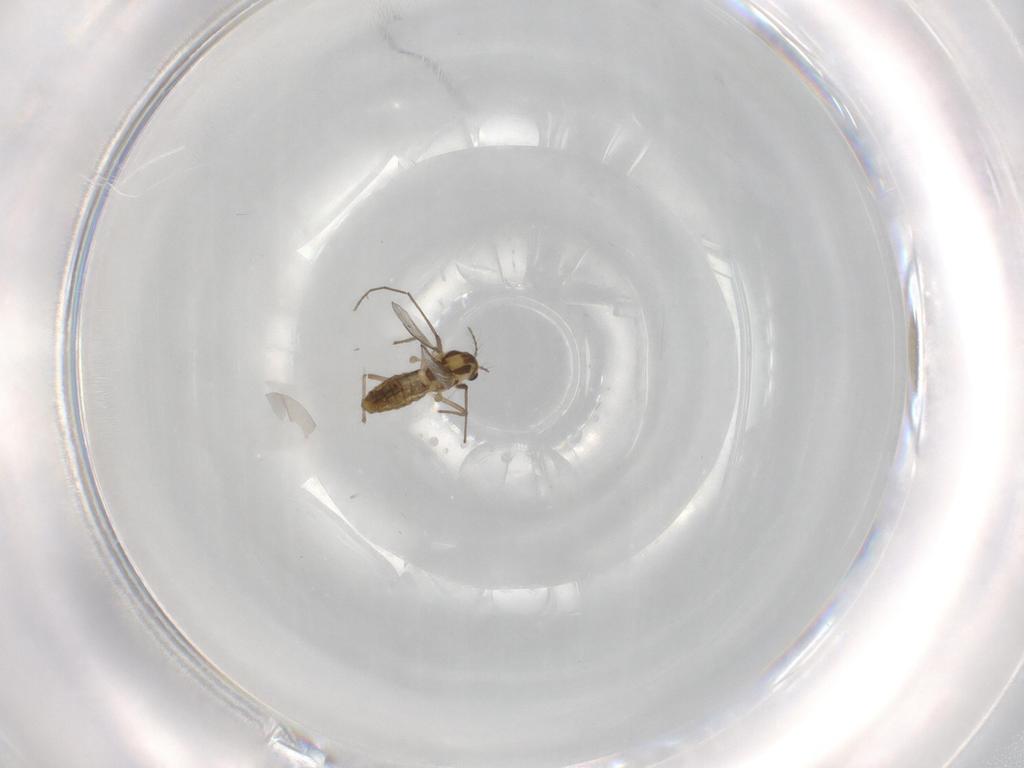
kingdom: Animalia
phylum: Arthropoda
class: Insecta
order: Diptera
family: Chironomidae
